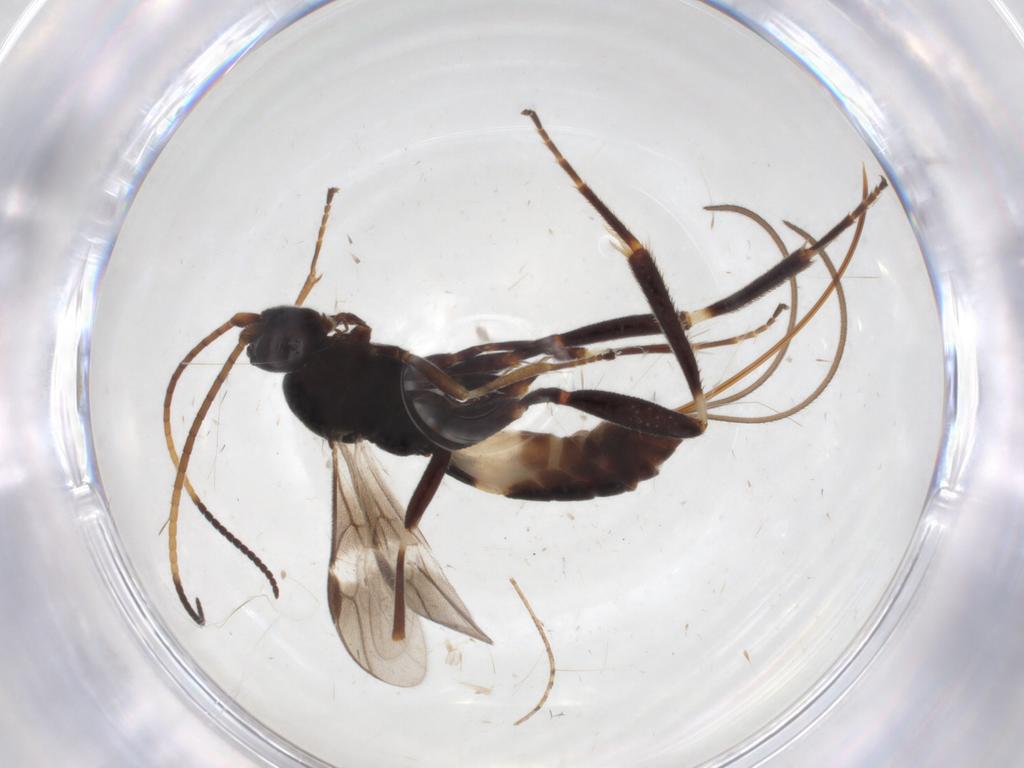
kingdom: Animalia
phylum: Arthropoda
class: Insecta
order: Hymenoptera
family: Braconidae
